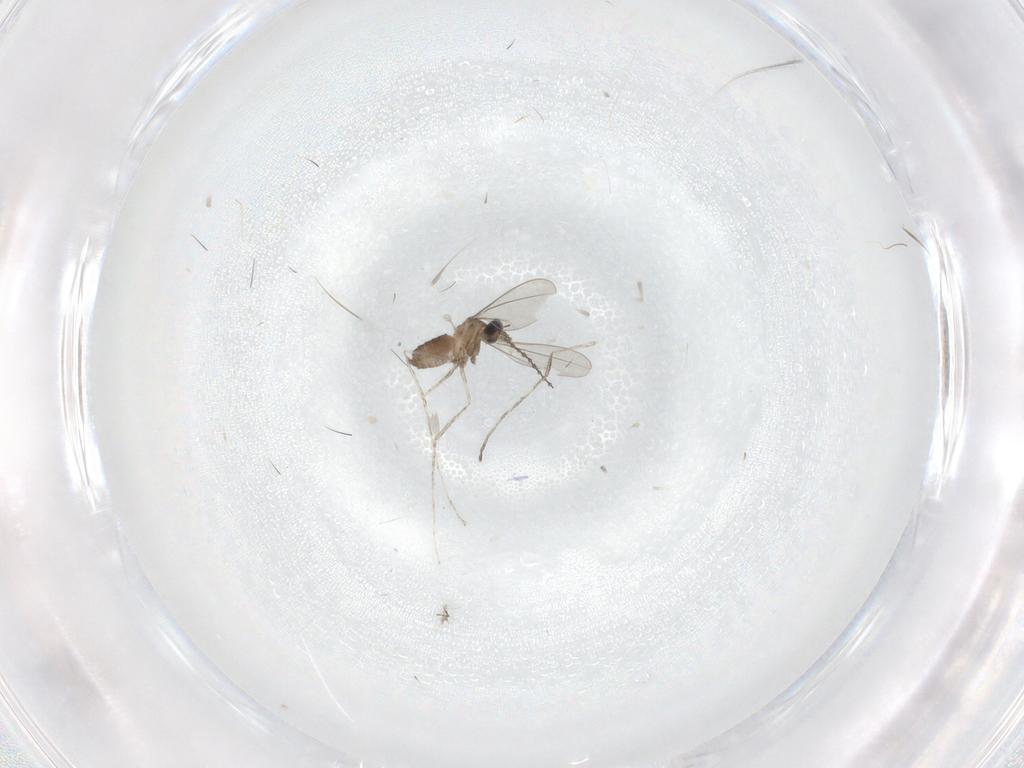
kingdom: Animalia
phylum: Arthropoda
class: Insecta
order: Diptera
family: Cecidomyiidae
